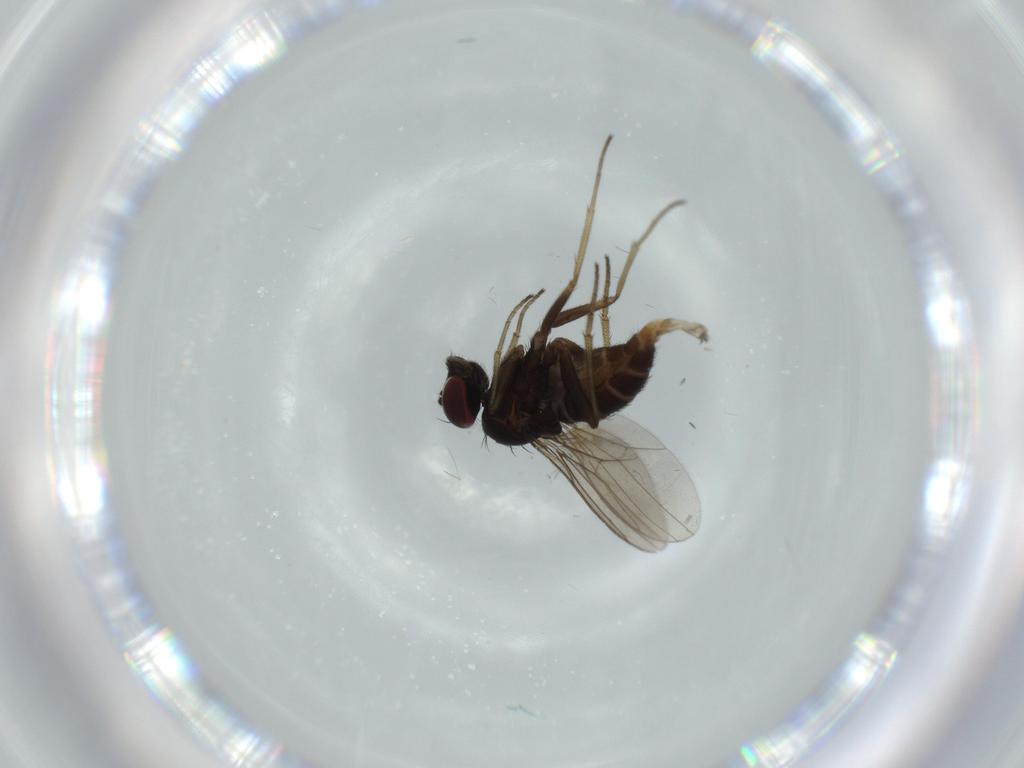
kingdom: Animalia
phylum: Arthropoda
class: Insecta
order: Diptera
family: Dolichopodidae
